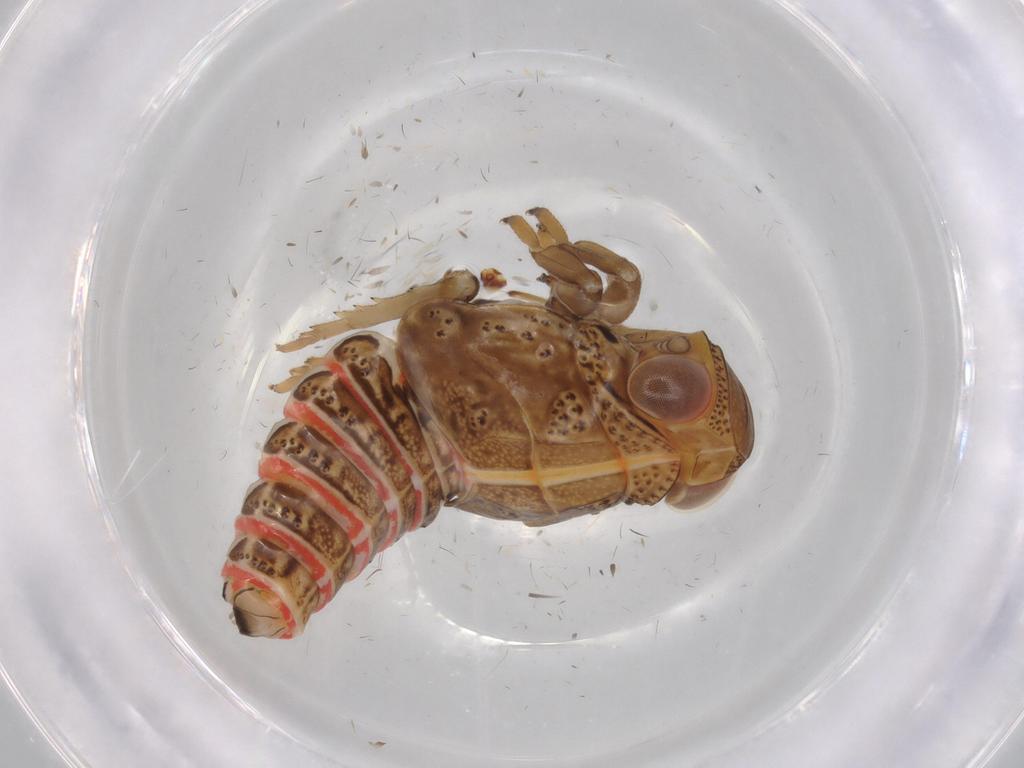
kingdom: Animalia
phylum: Arthropoda
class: Insecta
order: Hemiptera
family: Issidae
